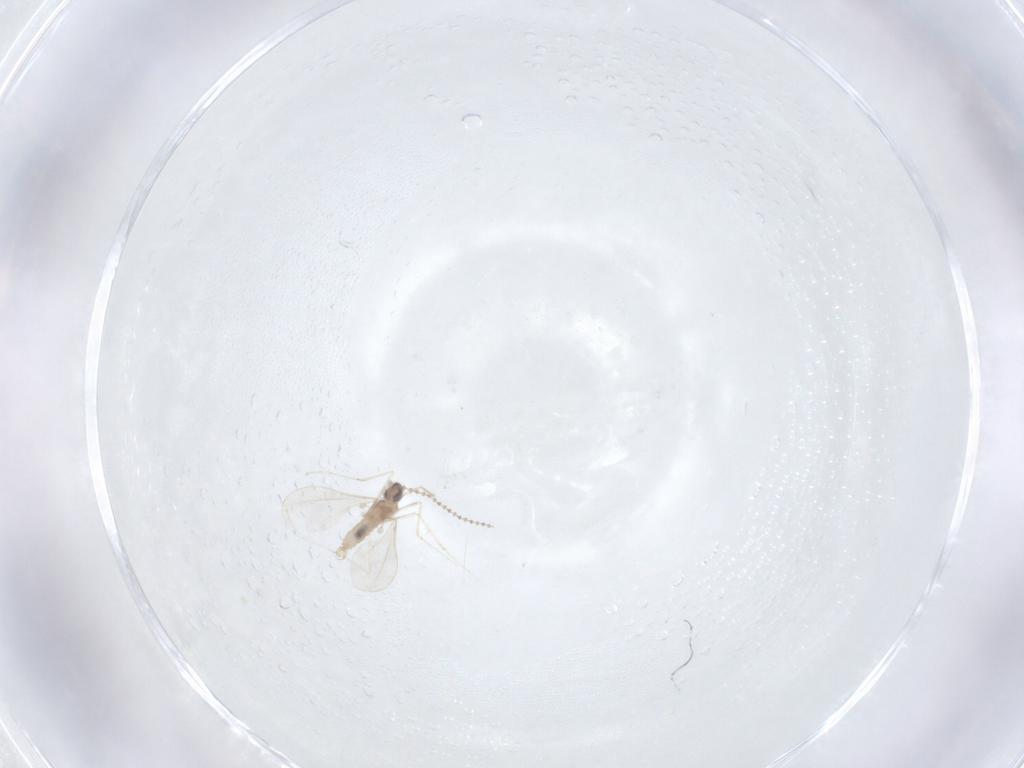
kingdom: Animalia
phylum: Arthropoda
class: Insecta
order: Diptera
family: Cecidomyiidae
